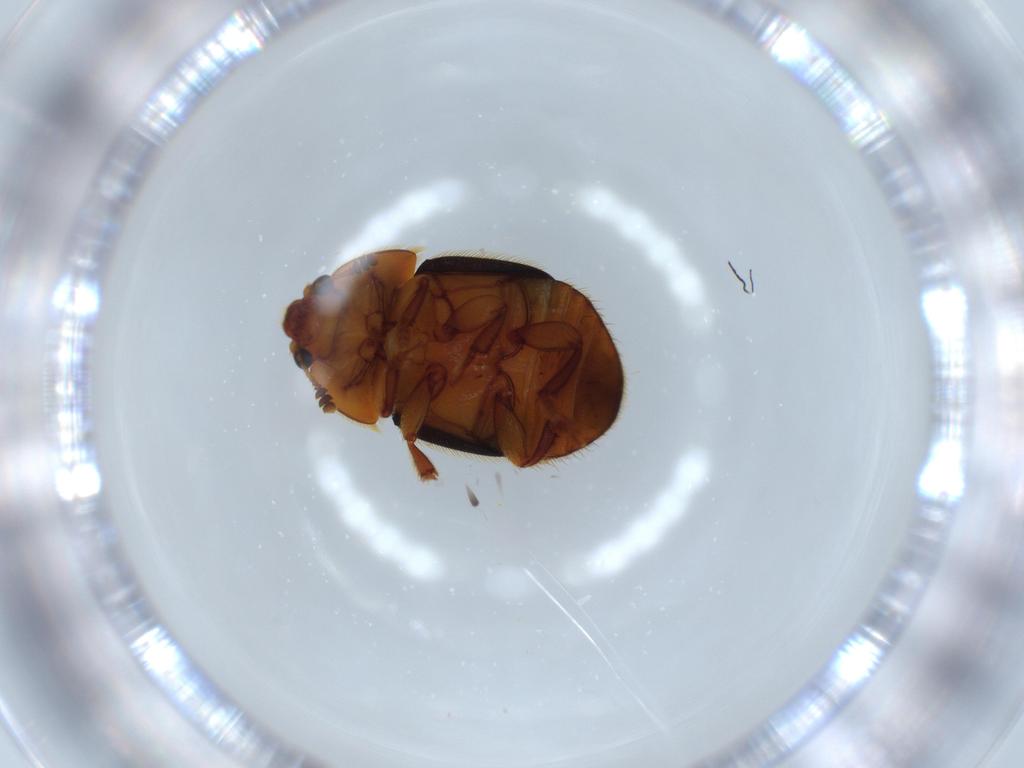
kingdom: Animalia
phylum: Arthropoda
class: Insecta
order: Coleoptera
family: Nitidulidae
